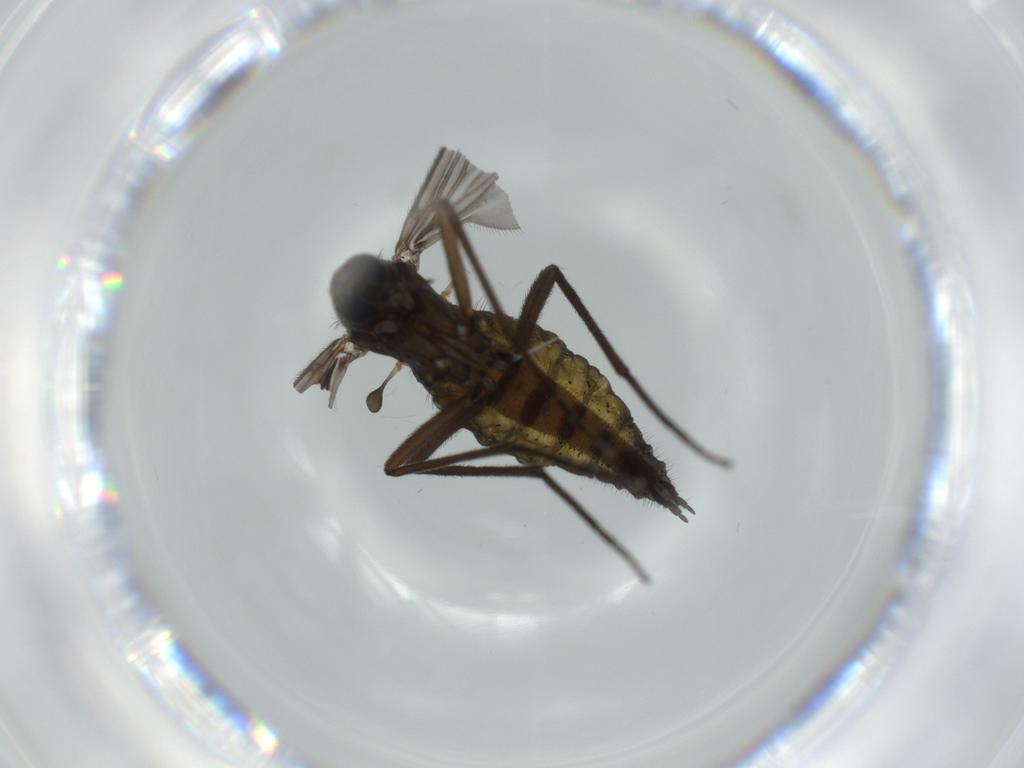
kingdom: Animalia
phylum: Arthropoda
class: Insecta
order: Diptera
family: Sciaridae
